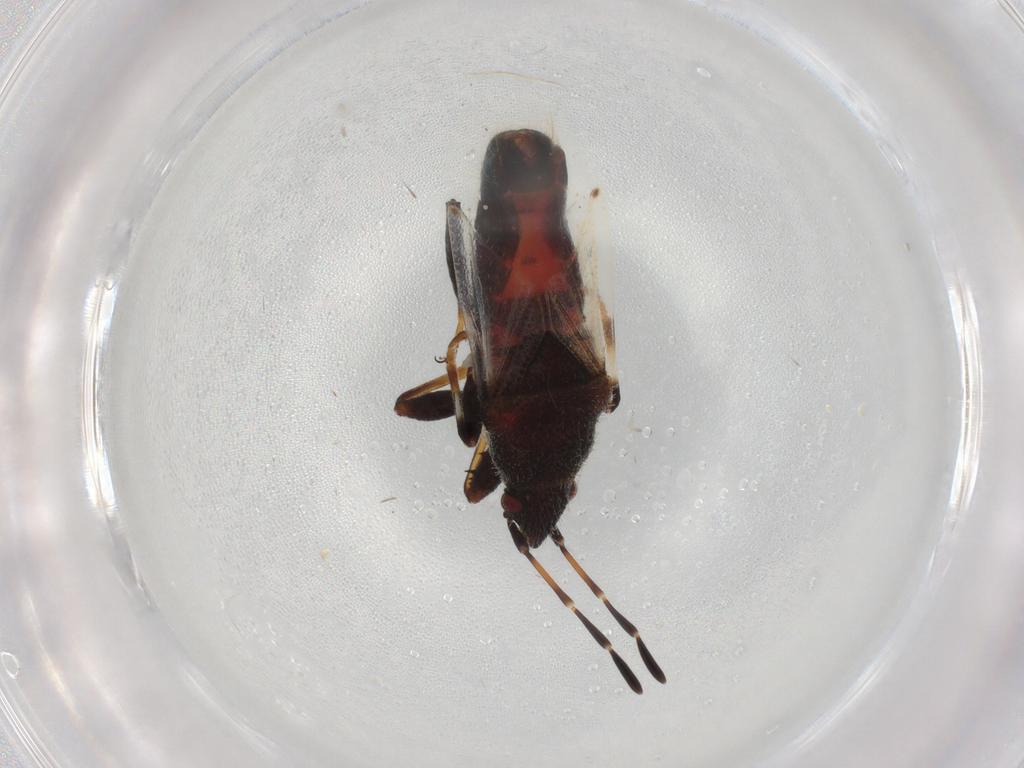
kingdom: Animalia
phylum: Arthropoda
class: Insecta
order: Hemiptera
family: Oxycarenidae
